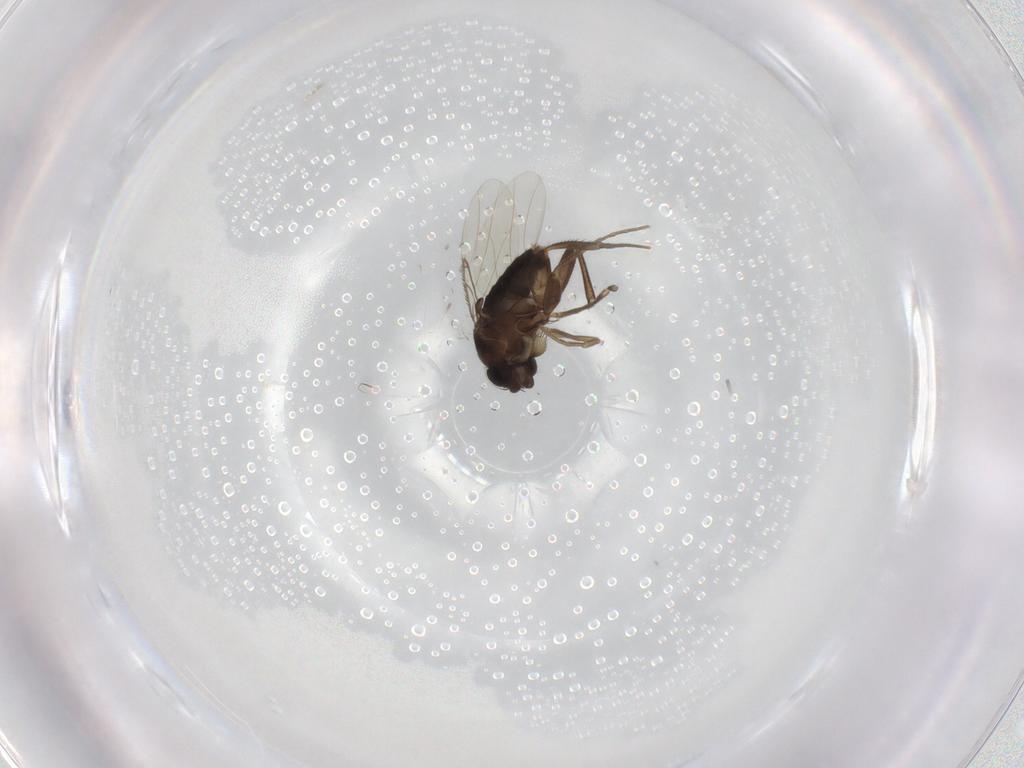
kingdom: Animalia
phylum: Arthropoda
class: Insecta
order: Diptera
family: Phoridae
